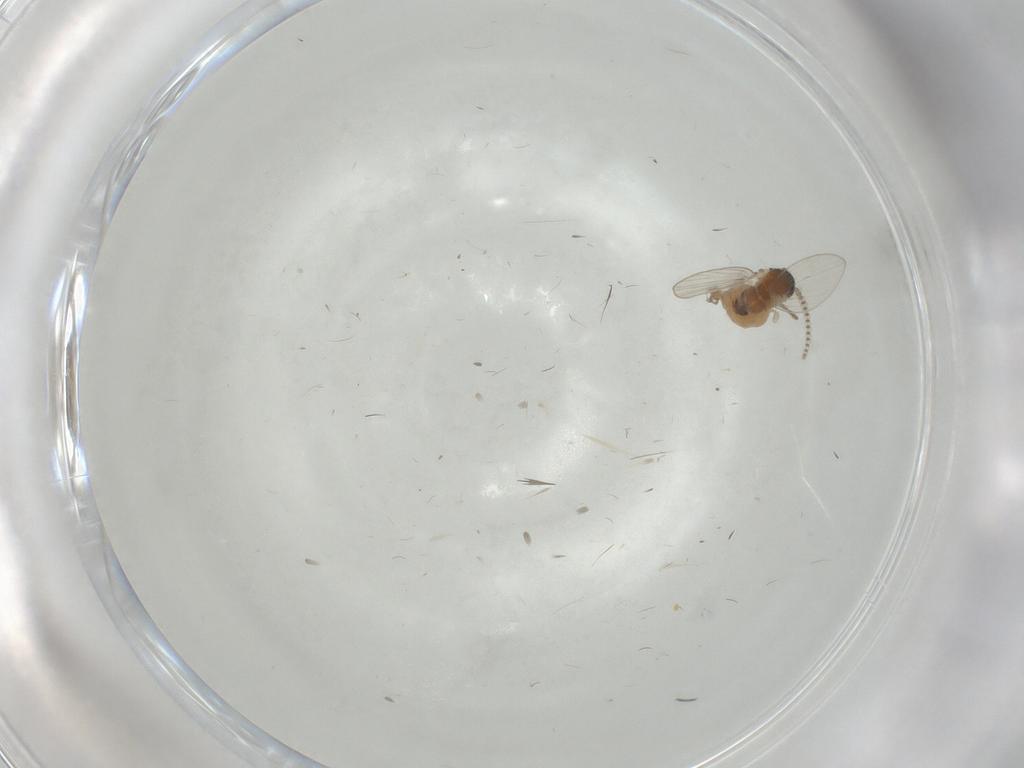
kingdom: Animalia
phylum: Arthropoda
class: Insecta
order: Diptera
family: Psychodidae
